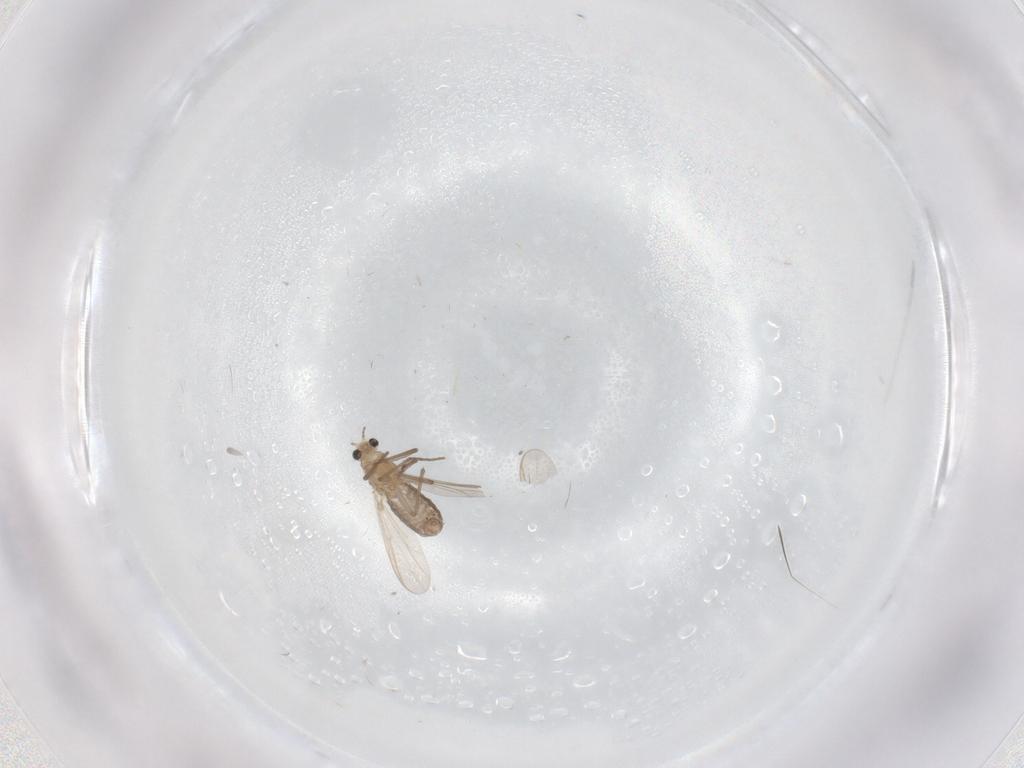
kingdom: Animalia
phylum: Arthropoda
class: Insecta
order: Diptera
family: Chironomidae
